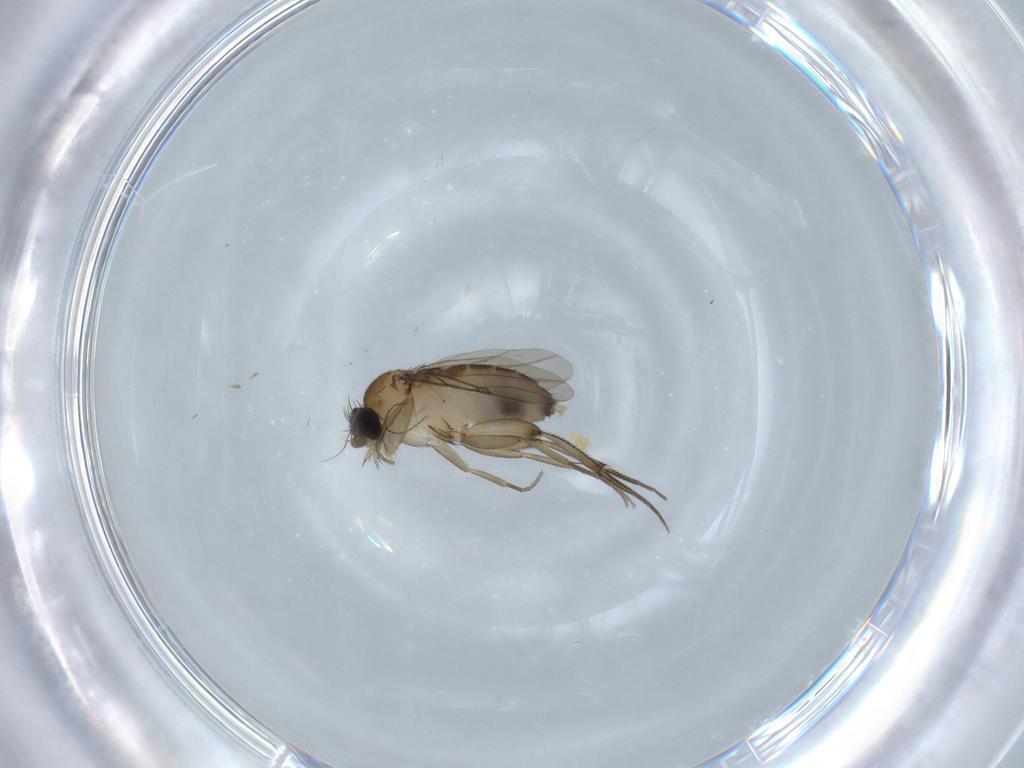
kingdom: Animalia
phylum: Arthropoda
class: Insecta
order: Diptera
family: Phoridae
